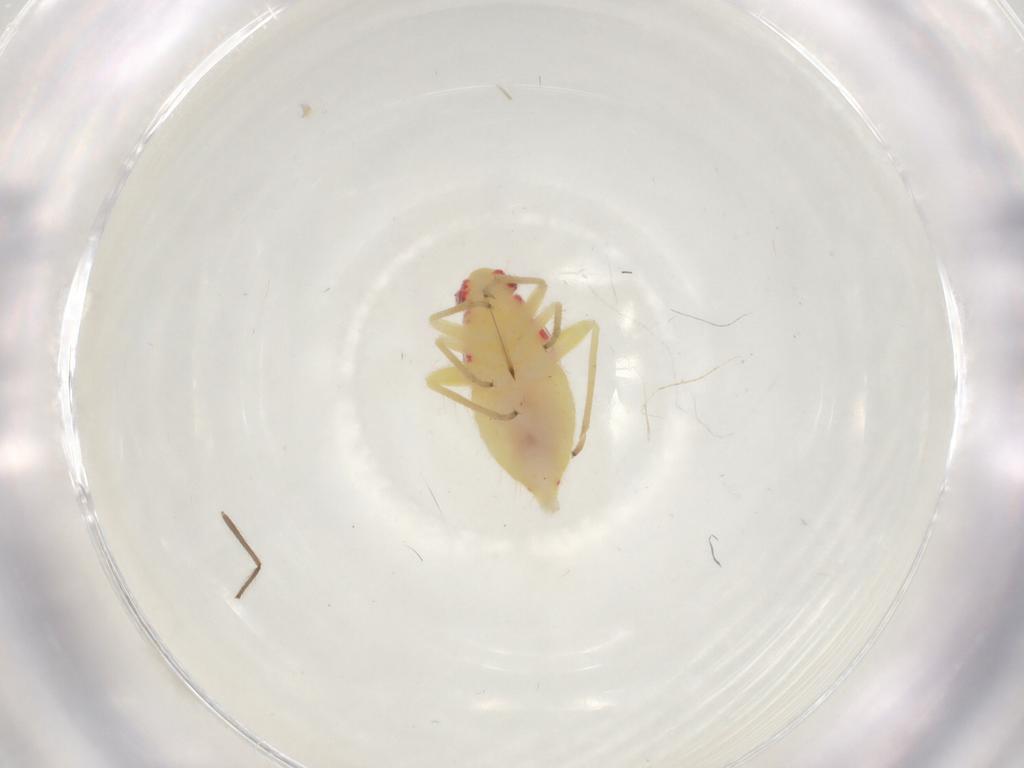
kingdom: Animalia
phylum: Arthropoda
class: Insecta
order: Hemiptera
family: Miridae
